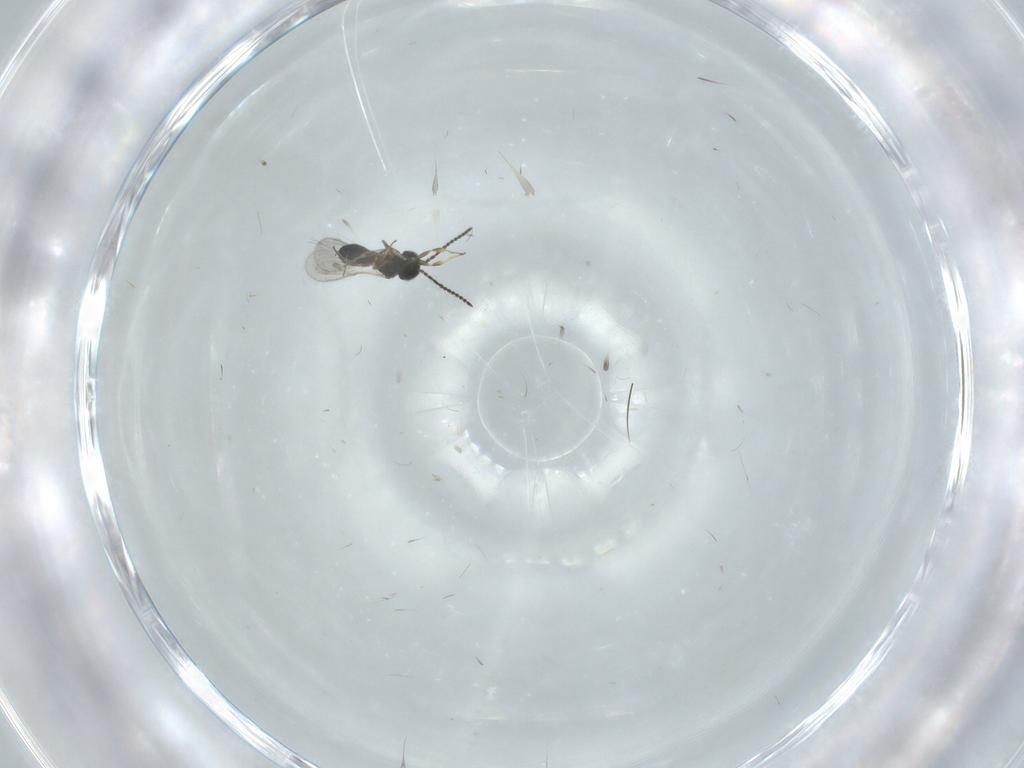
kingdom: Animalia
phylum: Arthropoda
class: Insecta
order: Hymenoptera
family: Scelionidae
